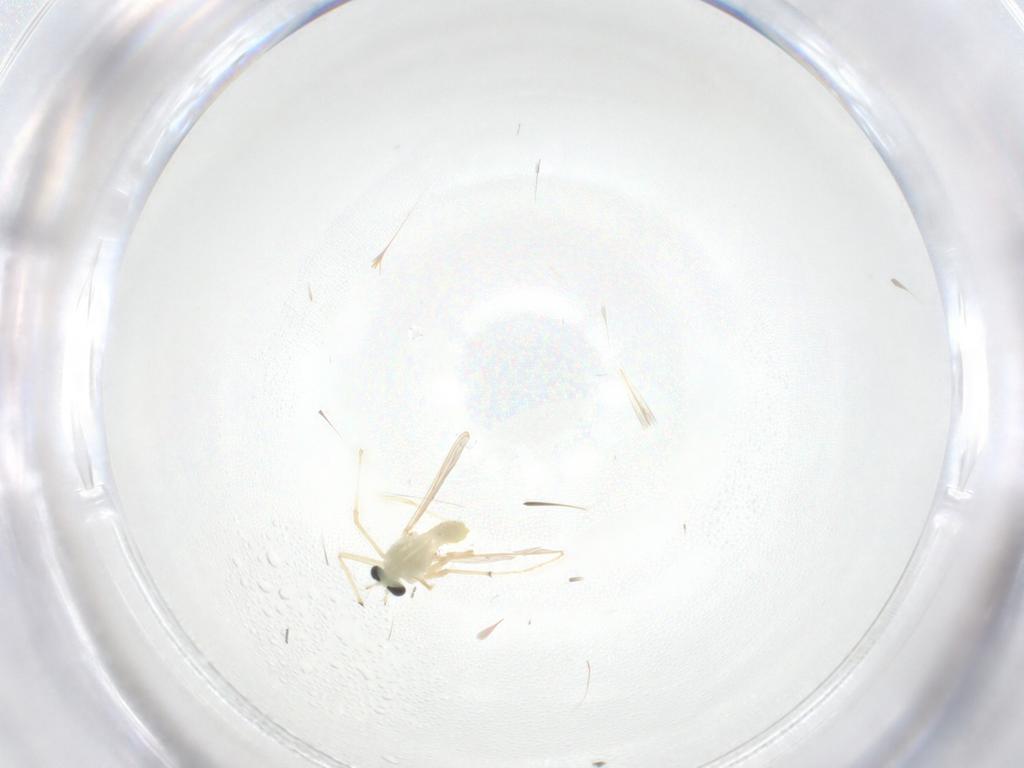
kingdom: Animalia
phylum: Arthropoda
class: Insecta
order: Diptera
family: Chironomidae
